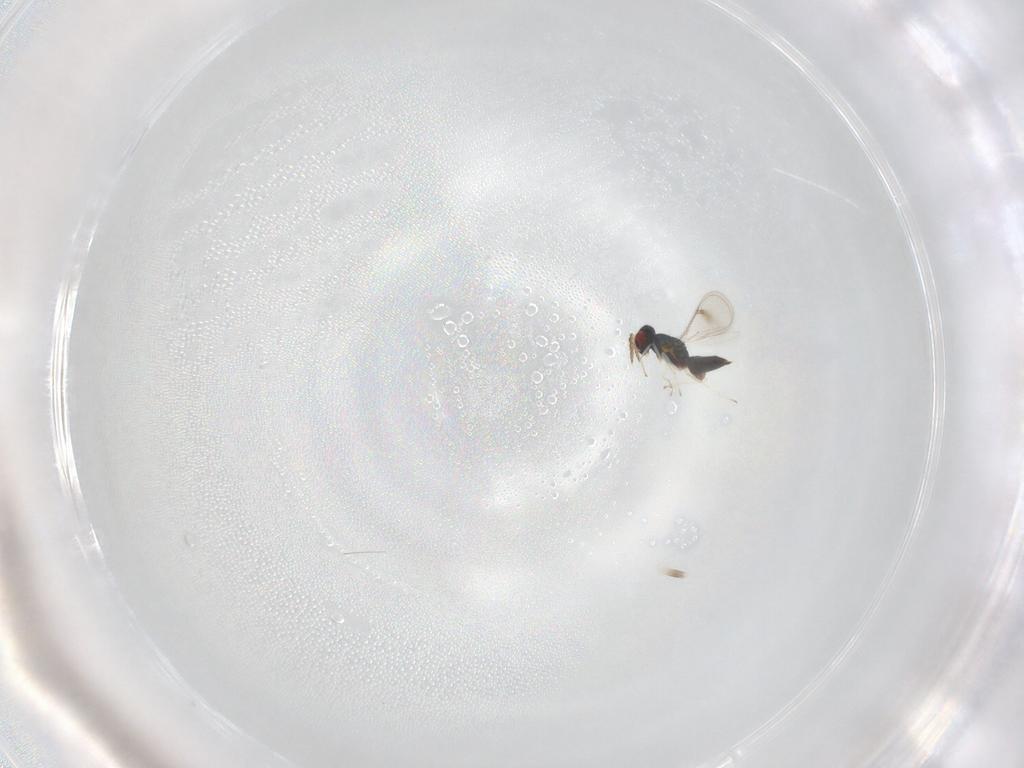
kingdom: Animalia
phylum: Arthropoda
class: Insecta
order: Hymenoptera
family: Eulophidae
